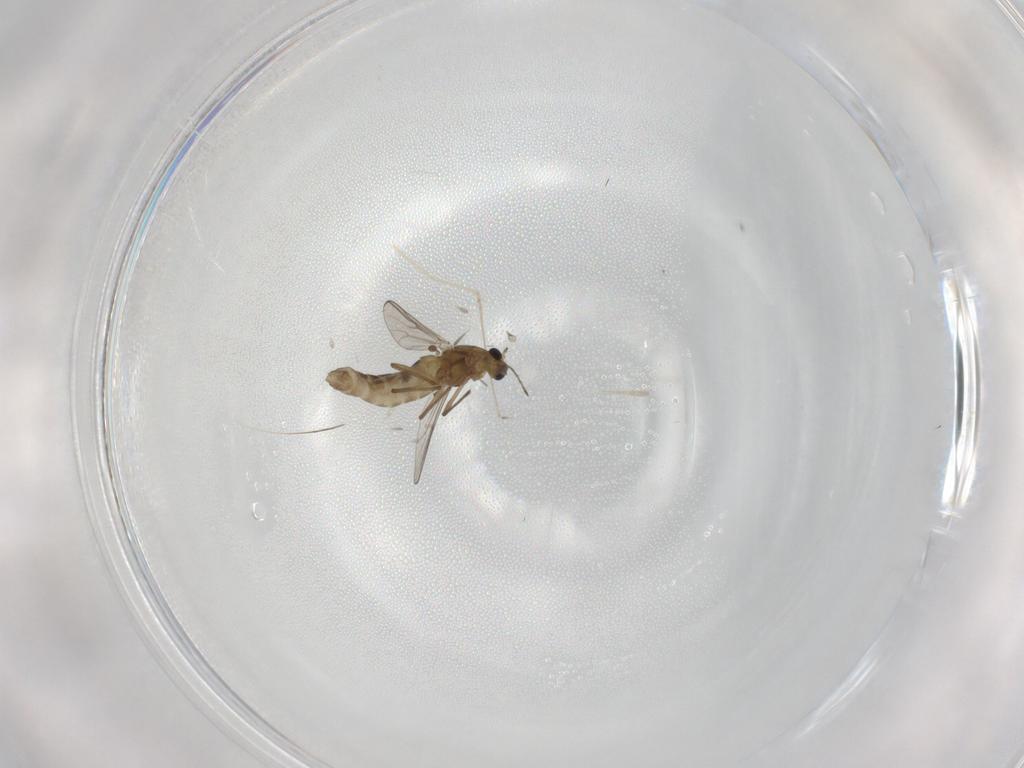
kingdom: Animalia
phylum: Arthropoda
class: Insecta
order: Diptera
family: Chironomidae
